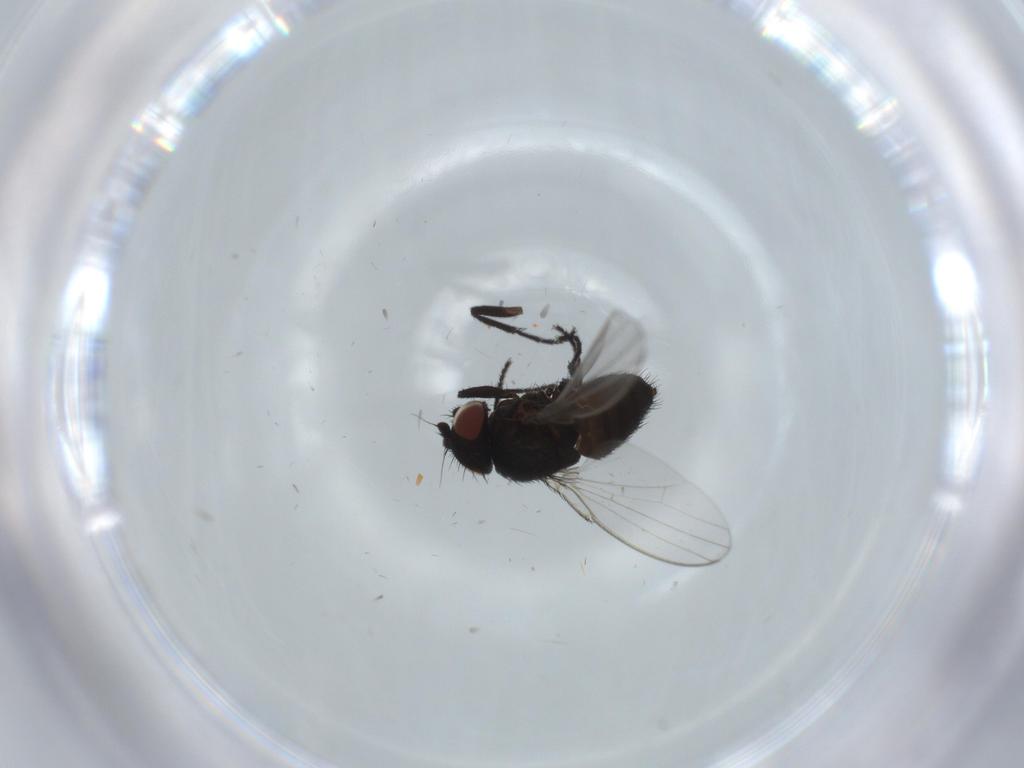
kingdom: Animalia
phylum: Arthropoda
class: Insecta
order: Diptera
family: Milichiidae
